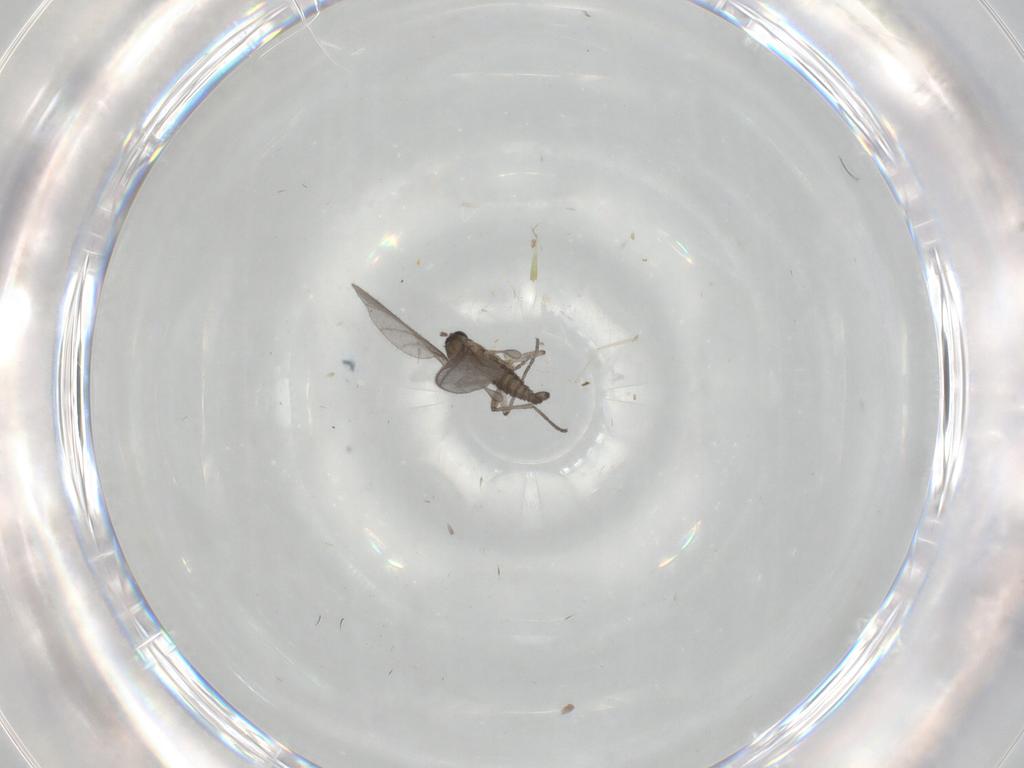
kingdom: Animalia
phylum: Arthropoda
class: Insecta
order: Diptera
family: Sciaridae
